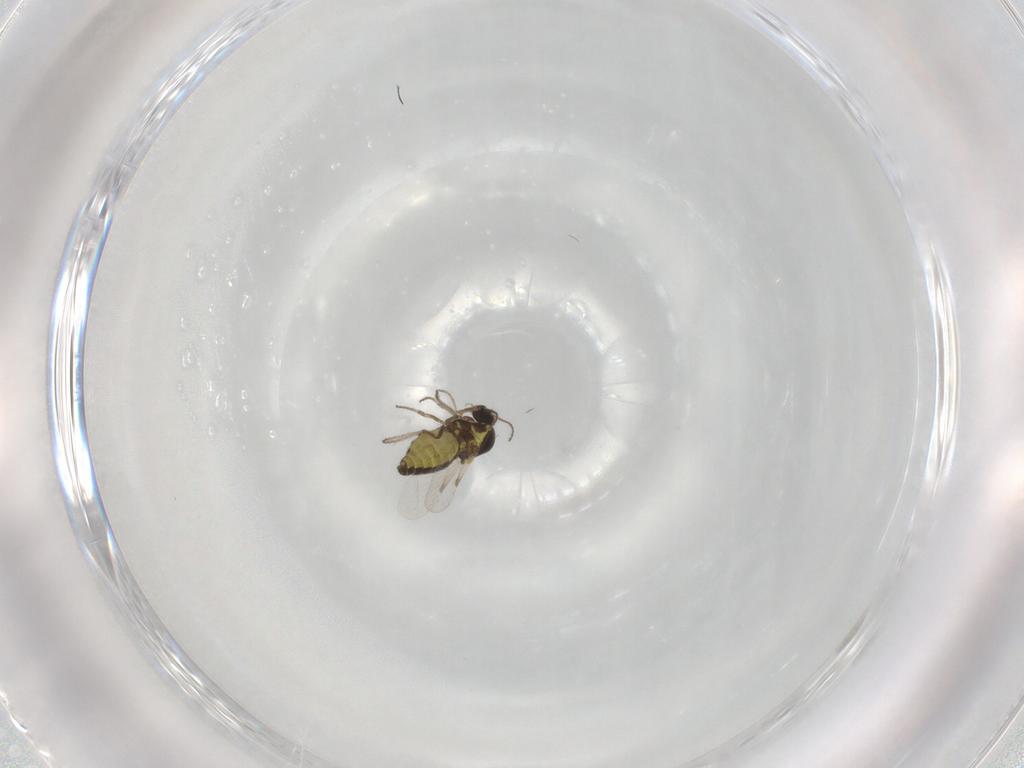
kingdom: Animalia
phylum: Arthropoda
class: Insecta
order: Diptera
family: Ceratopogonidae
